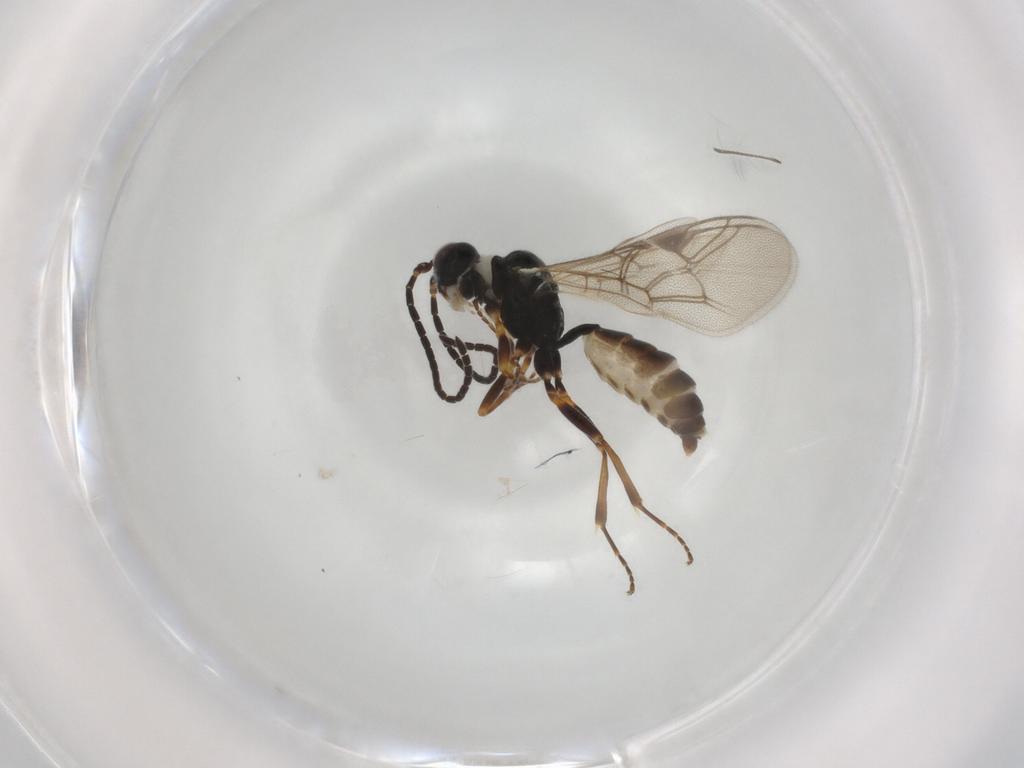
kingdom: Animalia
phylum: Arthropoda
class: Insecta
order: Hymenoptera
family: Ichneumonidae
